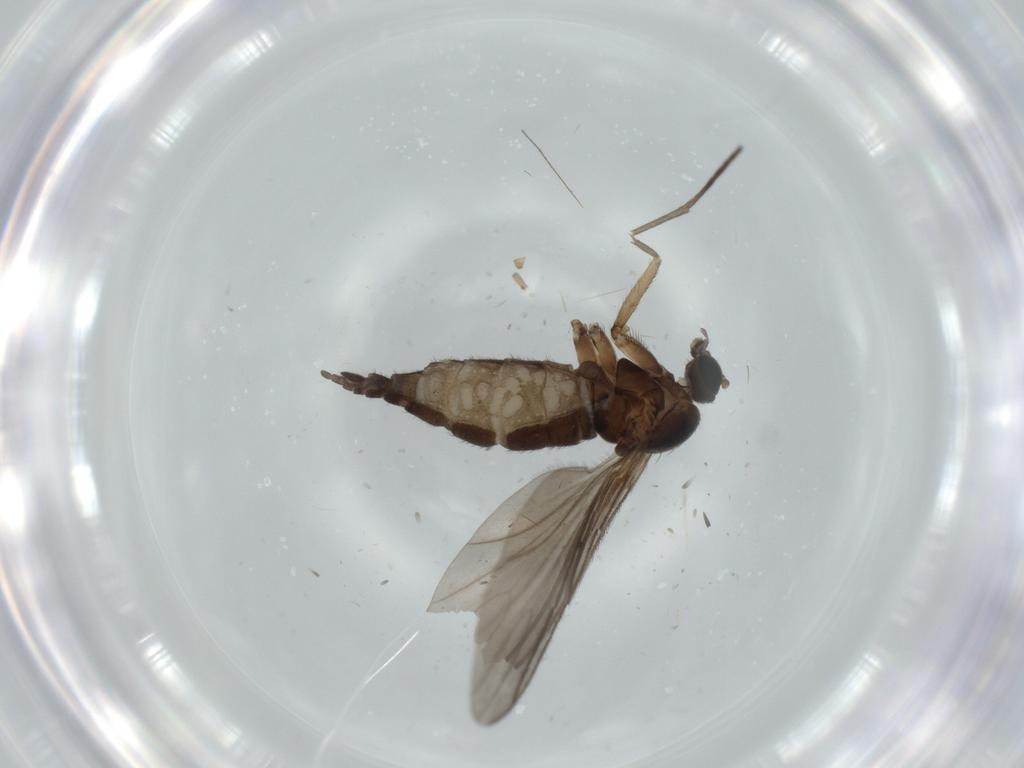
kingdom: Animalia
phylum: Arthropoda
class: Insecta
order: Diptera
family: Sciaridae
